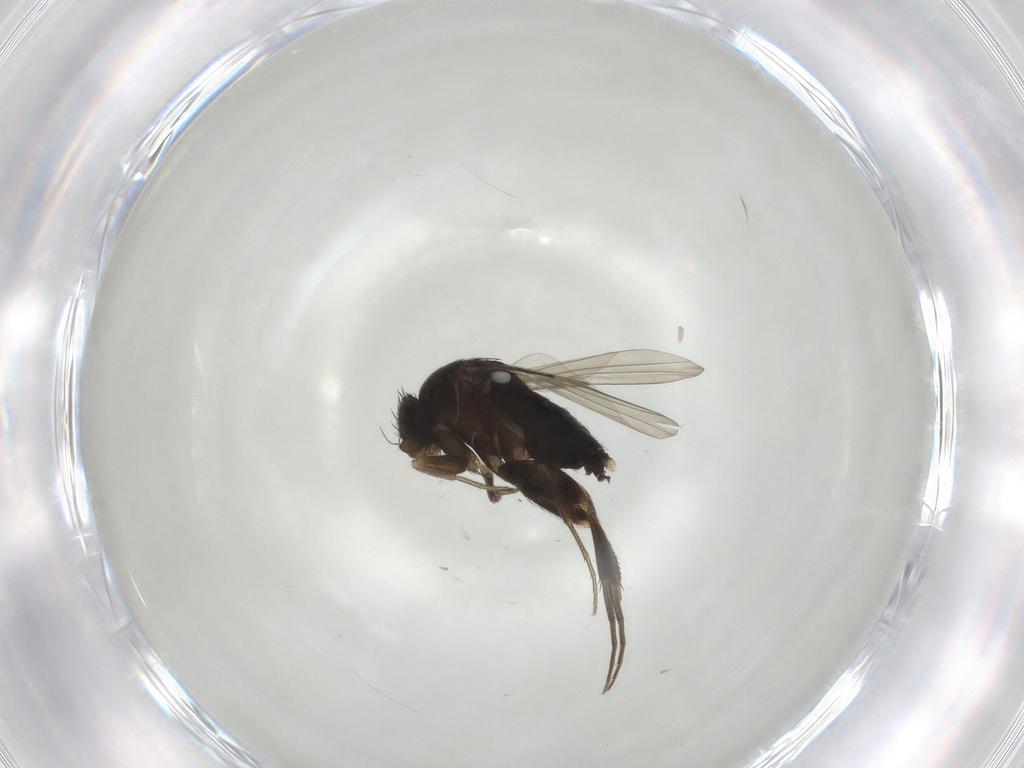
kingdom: Animalia
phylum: Arthropoda
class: Insecta
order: Diptera
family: Phoridae
